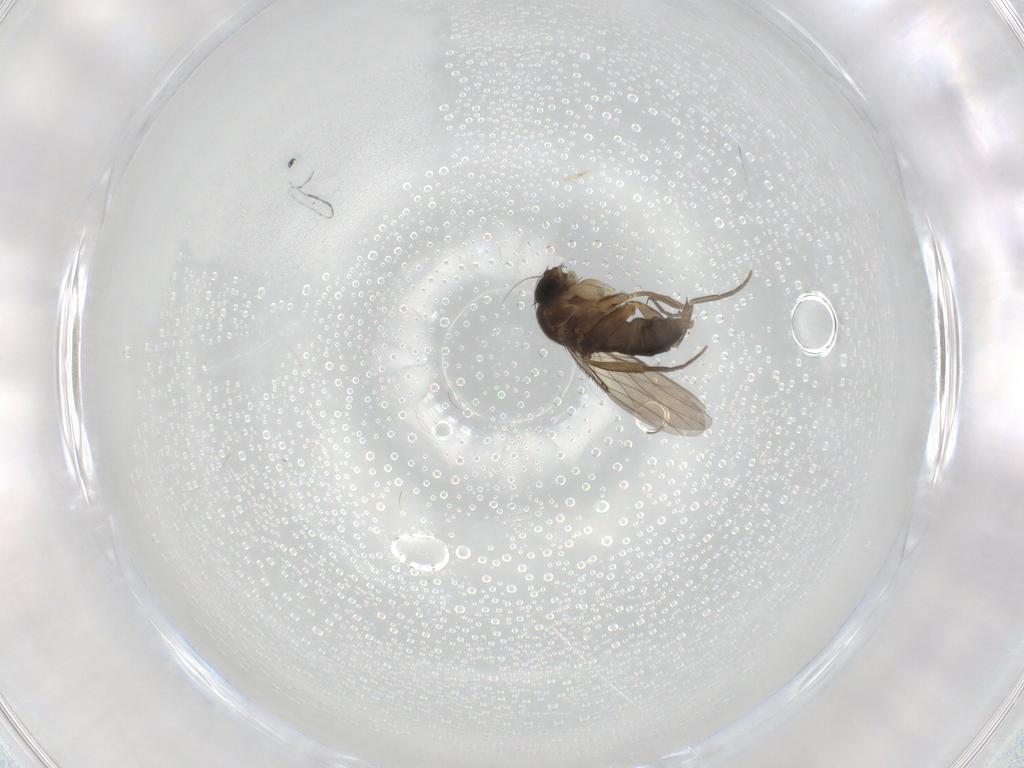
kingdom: Animalia
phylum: Arthropoda
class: Insecta
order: Diptera
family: Phoridae
